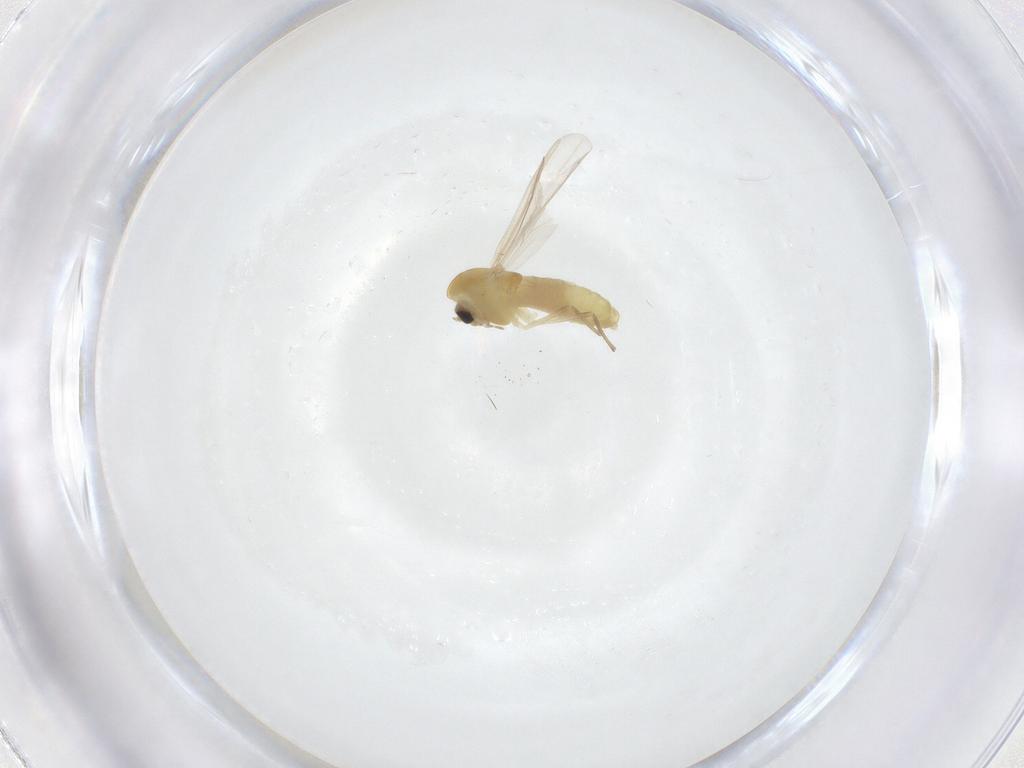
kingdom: Animalia
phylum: Arthropoda
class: Insecta
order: Diptera
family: Chironomidae
